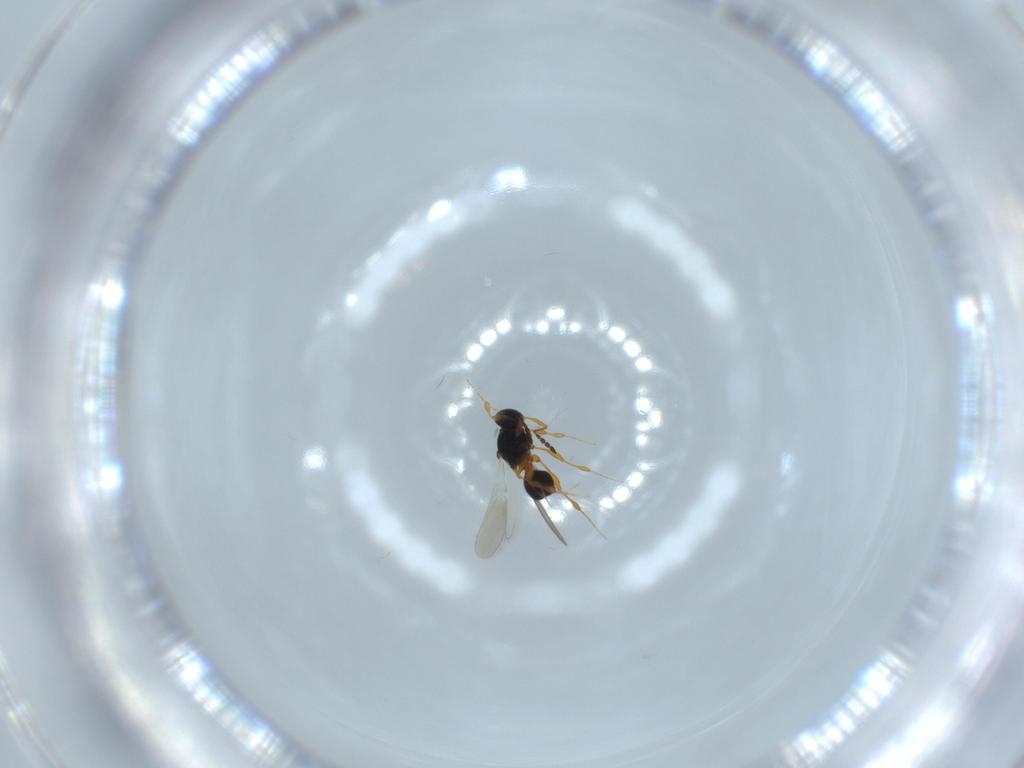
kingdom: Animalia
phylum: Arthropoda
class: Insecta
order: Hymenoptera
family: Platygastridae
